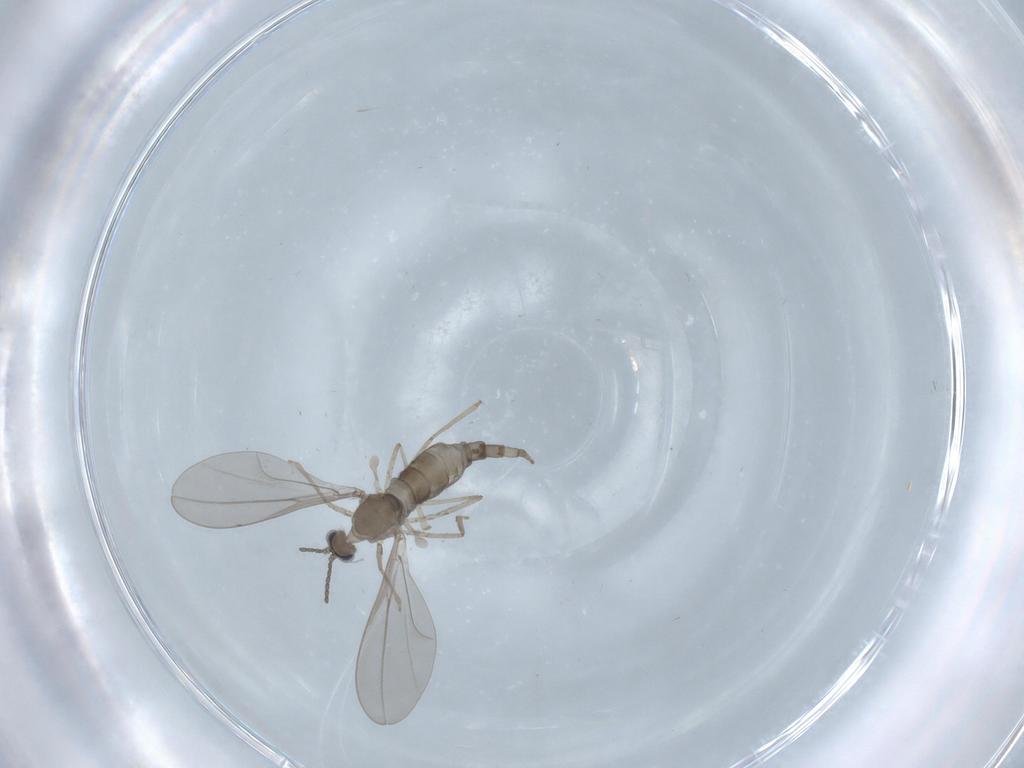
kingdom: Animalia
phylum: Arthropoda
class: Insecta
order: Diptera
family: Cecidomyiidae
